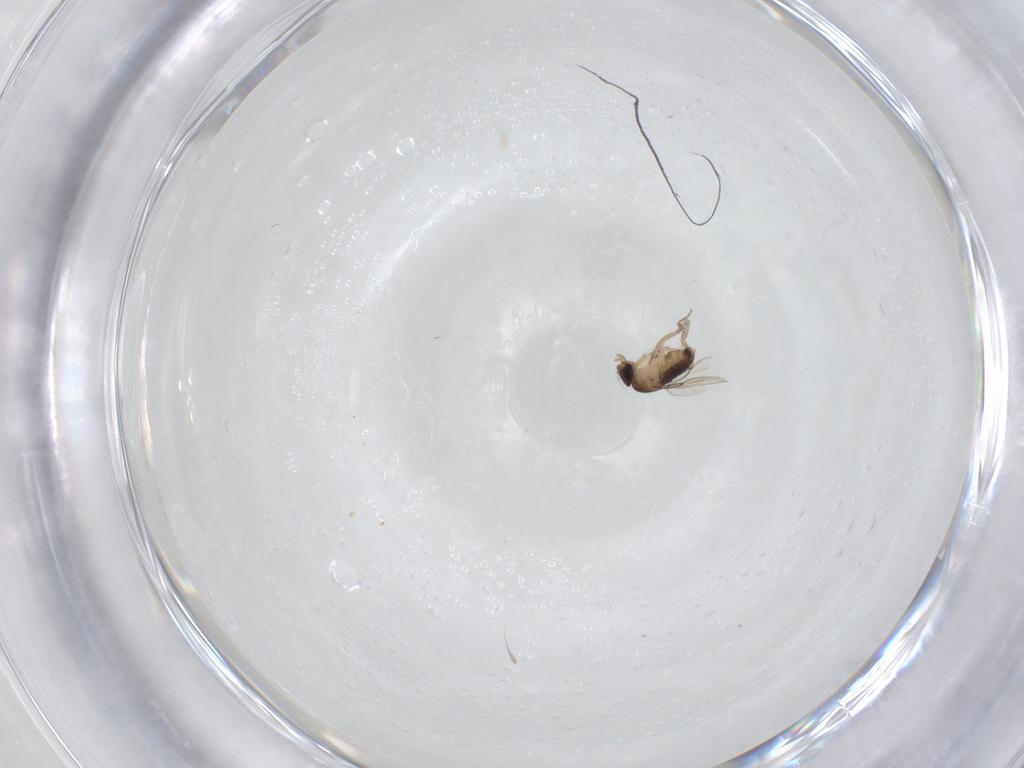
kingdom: Animalia
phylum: Arthropoda
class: Insecta
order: Diptera
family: Phoridae
